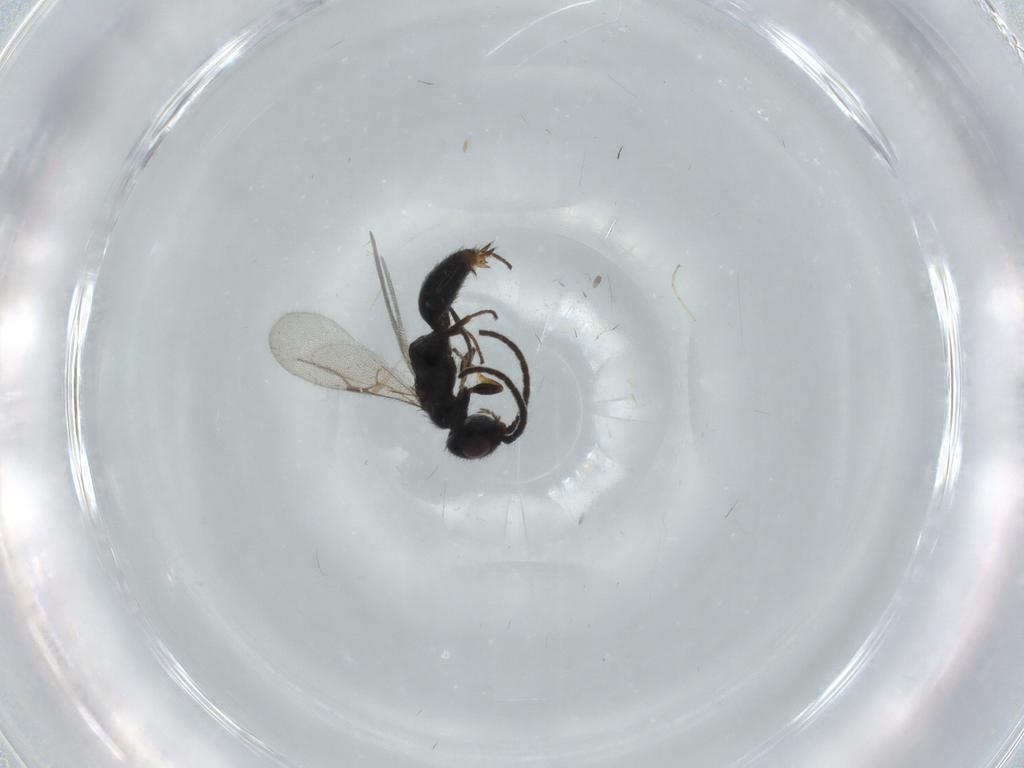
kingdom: Animalia
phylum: Arthropoda
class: Insecta
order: Hymenoptera
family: Bethylidae
